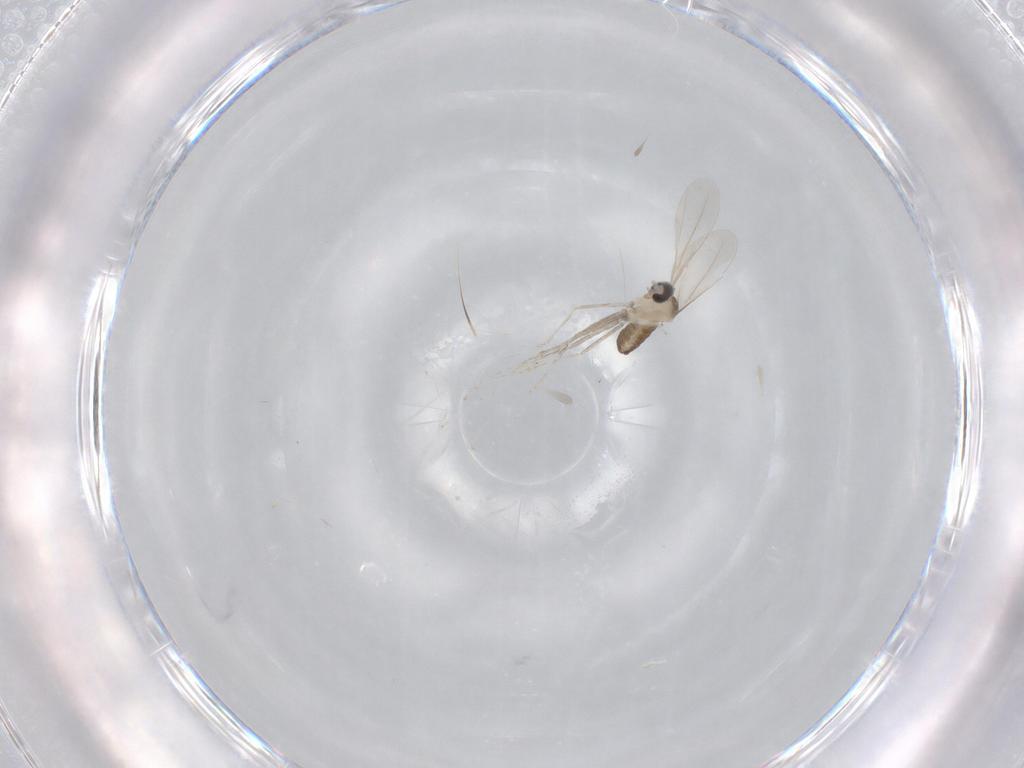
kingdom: Animalia
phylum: Arthropoda
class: Insecta
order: Diptera
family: Cecidomyiidae
